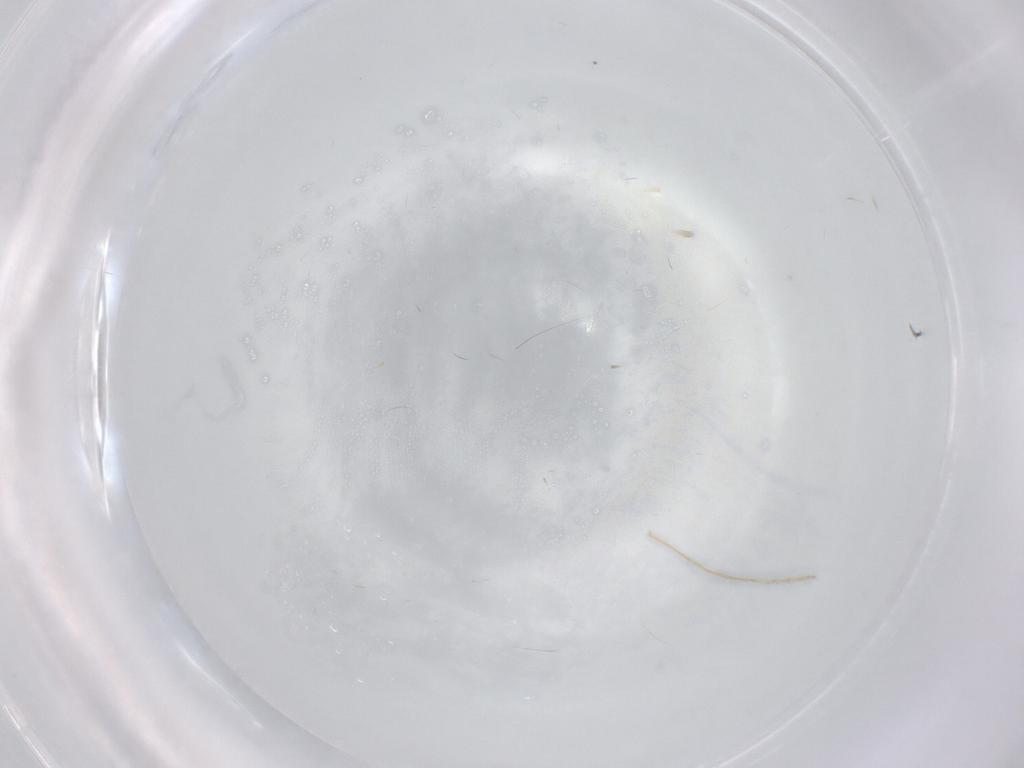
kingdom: Animalia
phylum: Arthropoda
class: Insecta
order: Diptera
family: Ceratopogonidae
